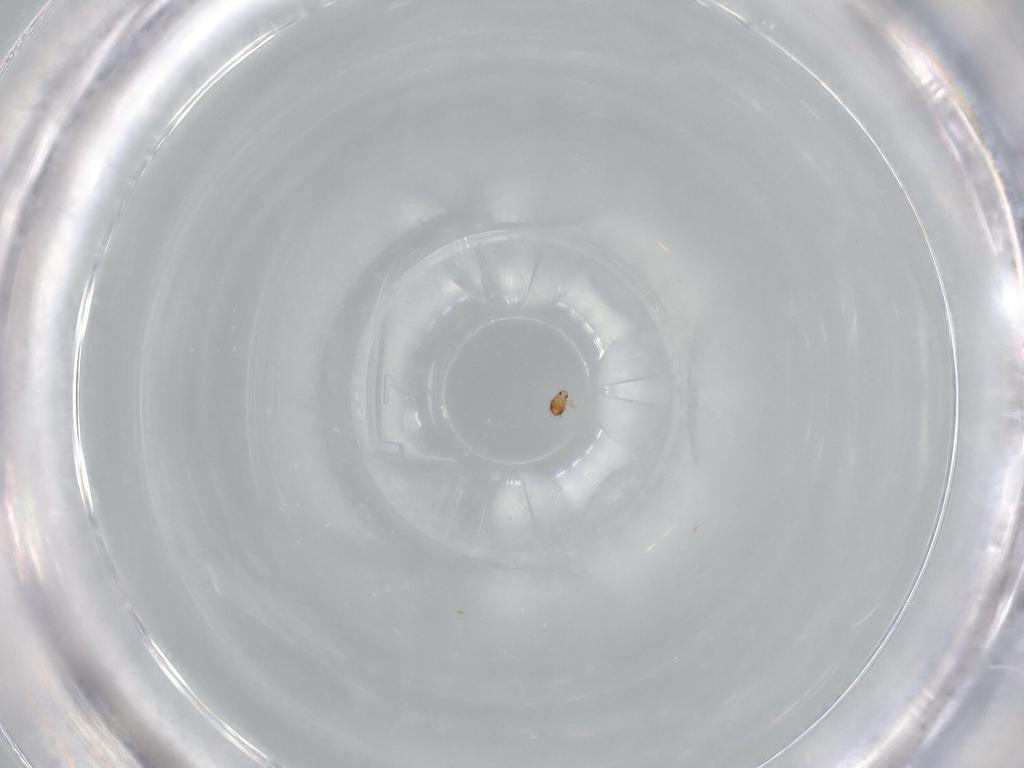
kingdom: Animalia
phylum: Arthropoda
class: Insecta
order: Coleoptera
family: Ripiphoridae
